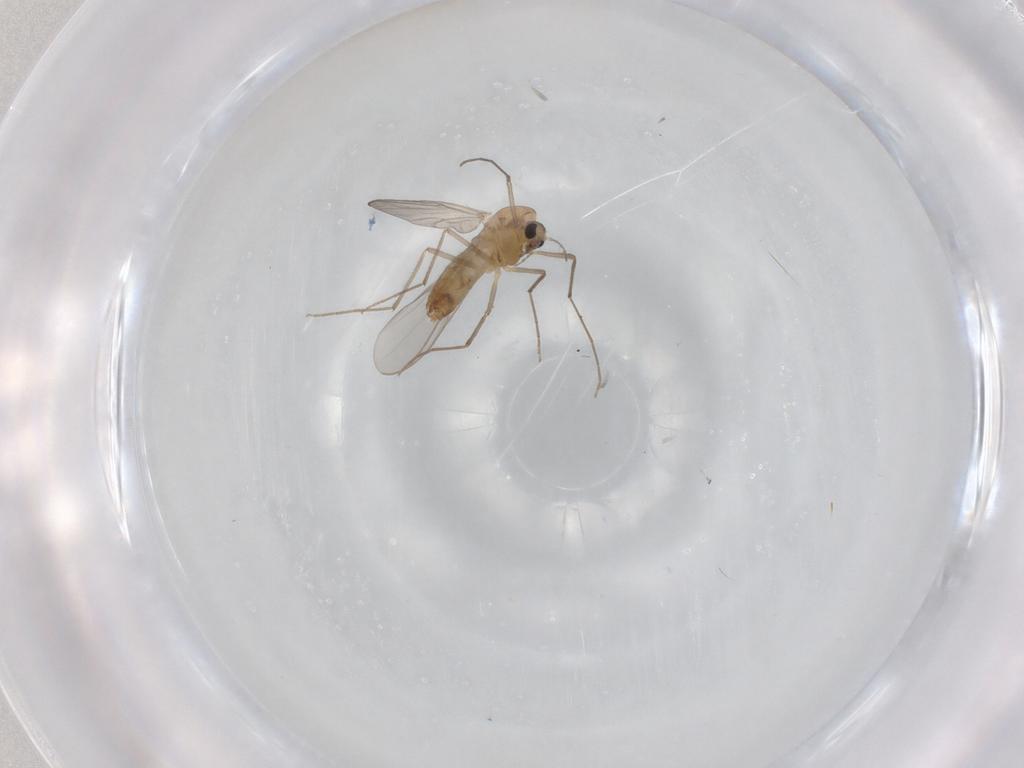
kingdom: Animalia
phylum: Arthropoda
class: Insecta
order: Diptera
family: Chironomidae
